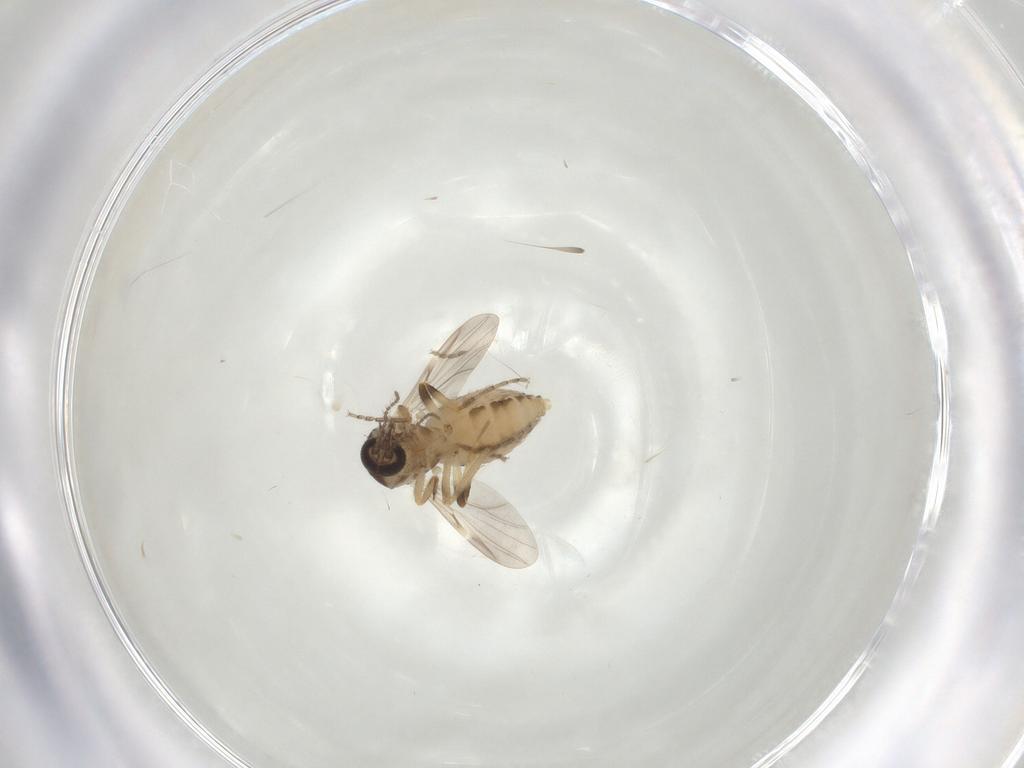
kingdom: Animalia
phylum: Arthropoda
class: Insecta
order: Diptera
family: Ceratopogonidae
